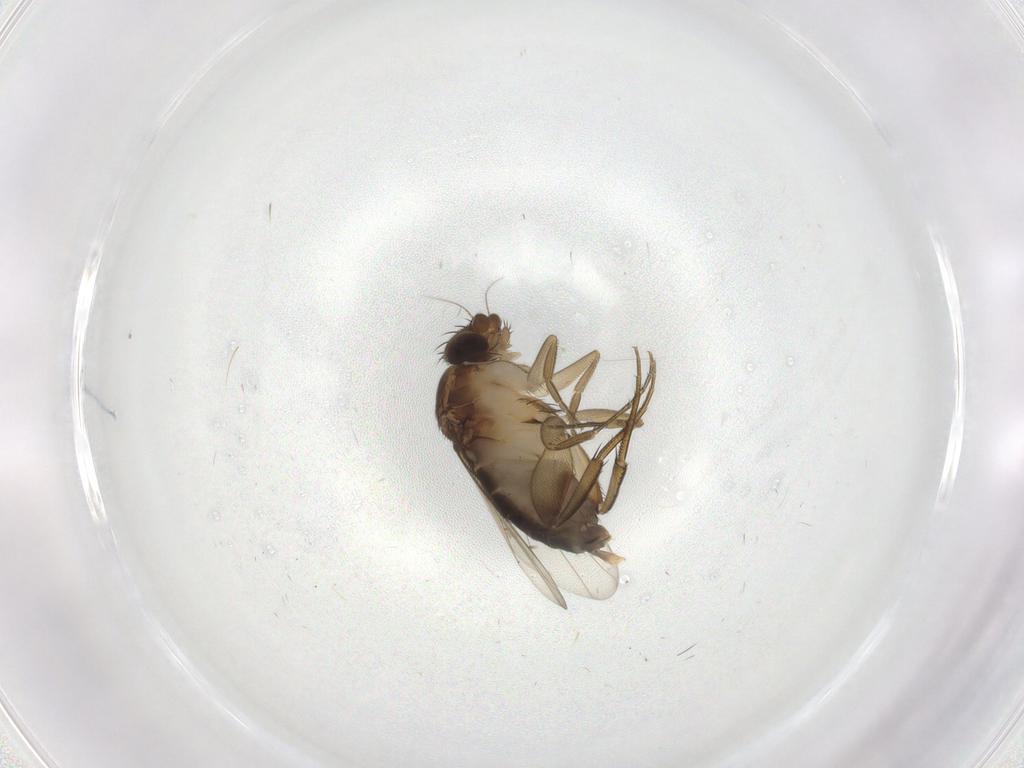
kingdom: Animalia
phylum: Arthropoda
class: Insecta
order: Diptera
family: Phoridae
